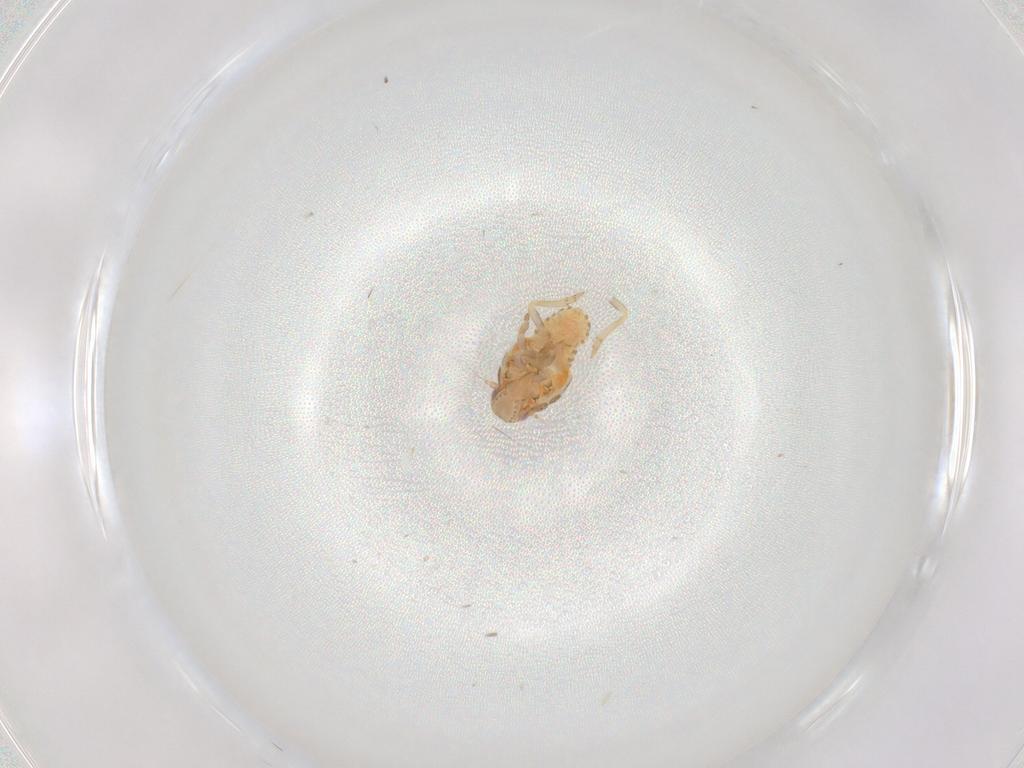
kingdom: Animalia
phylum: Arthropoda
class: Insecta
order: Hemiptera
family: Flatidae
